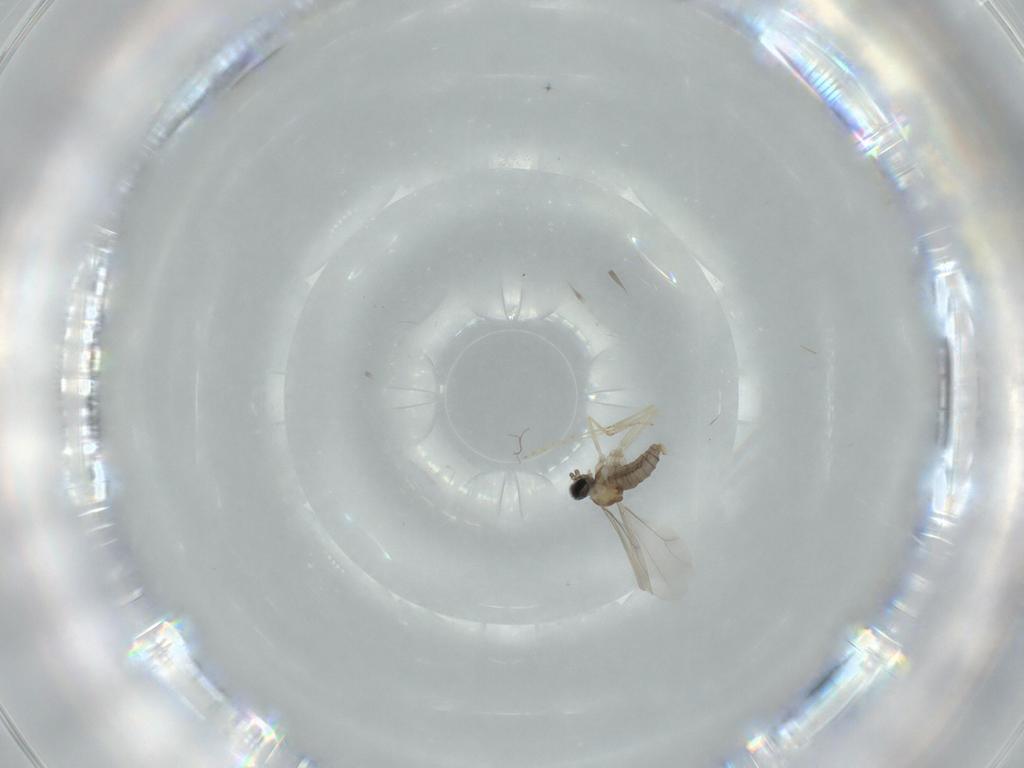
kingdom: Animalia
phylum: Arthropoda
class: Insecta
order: Diptera
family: Cecidomyiidae
